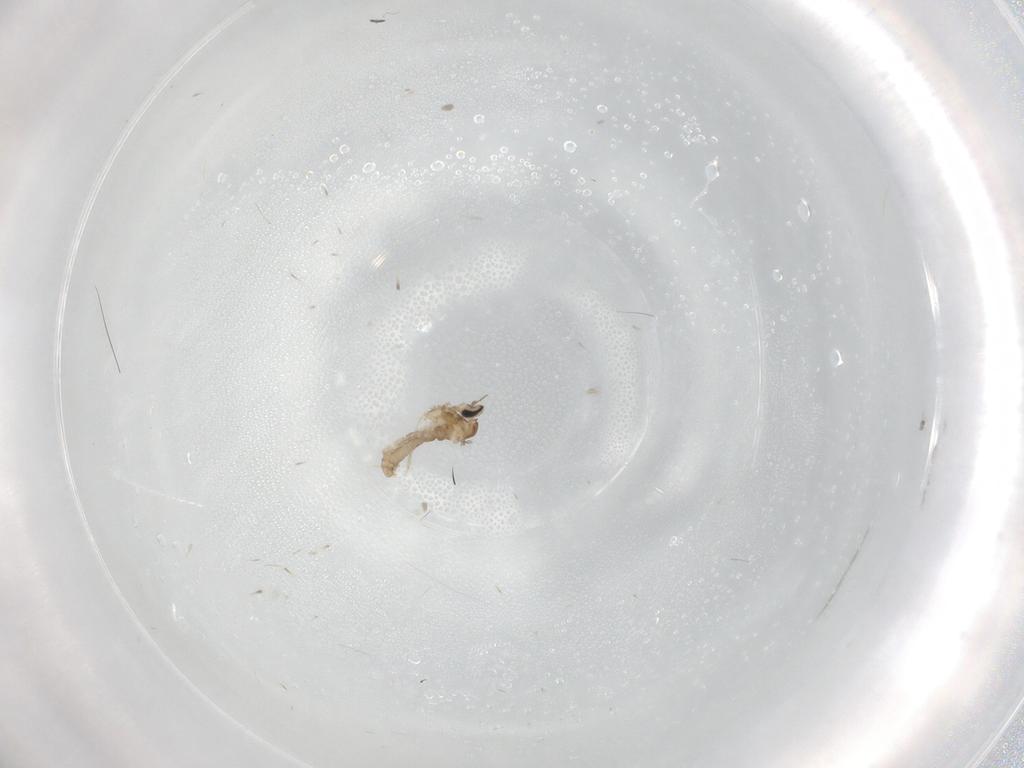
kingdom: Animalia
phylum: Arthropoda
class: Insecta
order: Diptera
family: Cecidomyiidae
